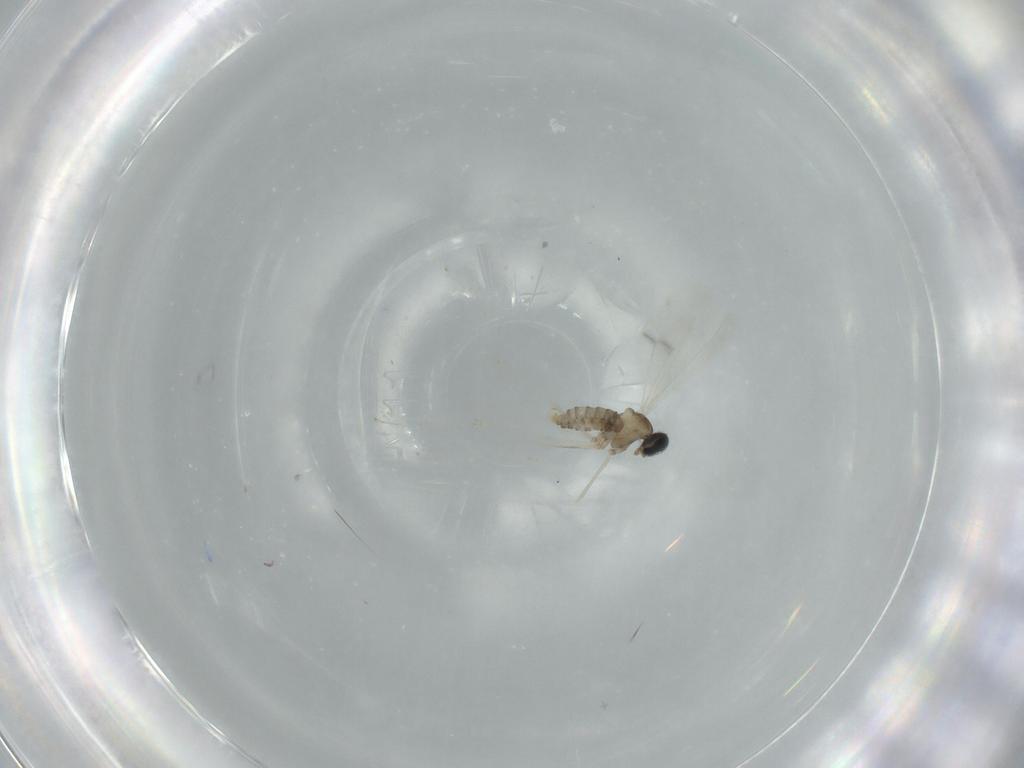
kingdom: Animalia
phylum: Arthropoda
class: Insecta
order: Diptera
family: Cecidomyiidae
